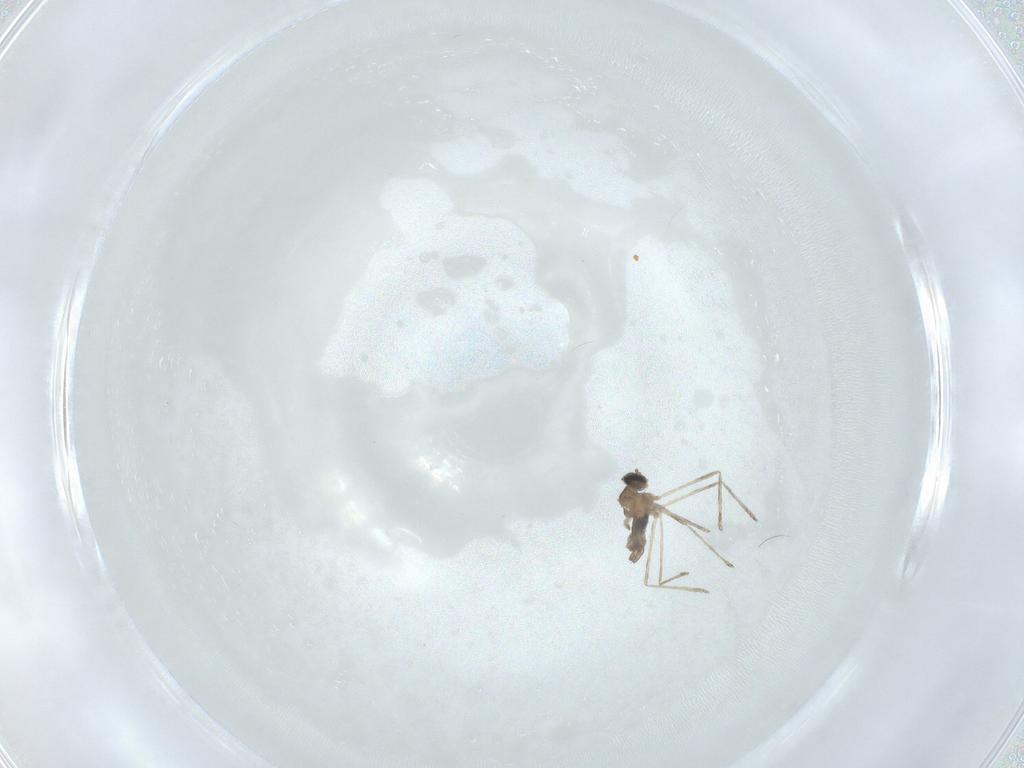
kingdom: Animalia
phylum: Arthropoda
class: Insecta
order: Diptera
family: Cecidomyiidae
